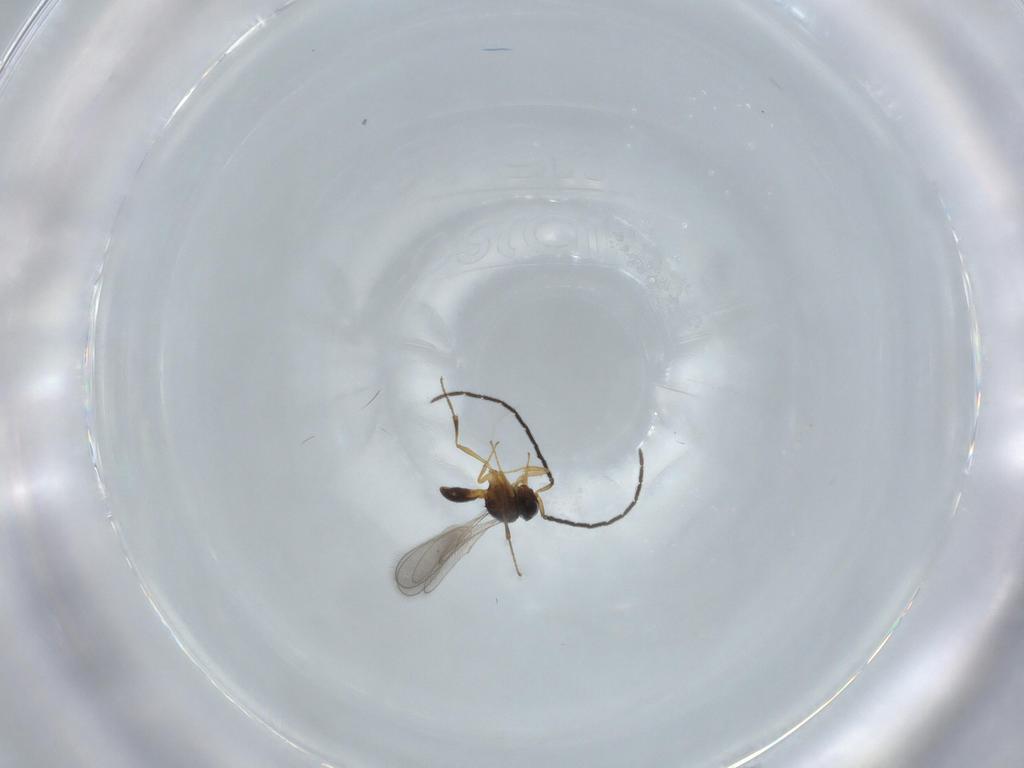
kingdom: Animalia
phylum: Arthropoda
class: Insecta
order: Hymenoptera
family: Scelionidae
